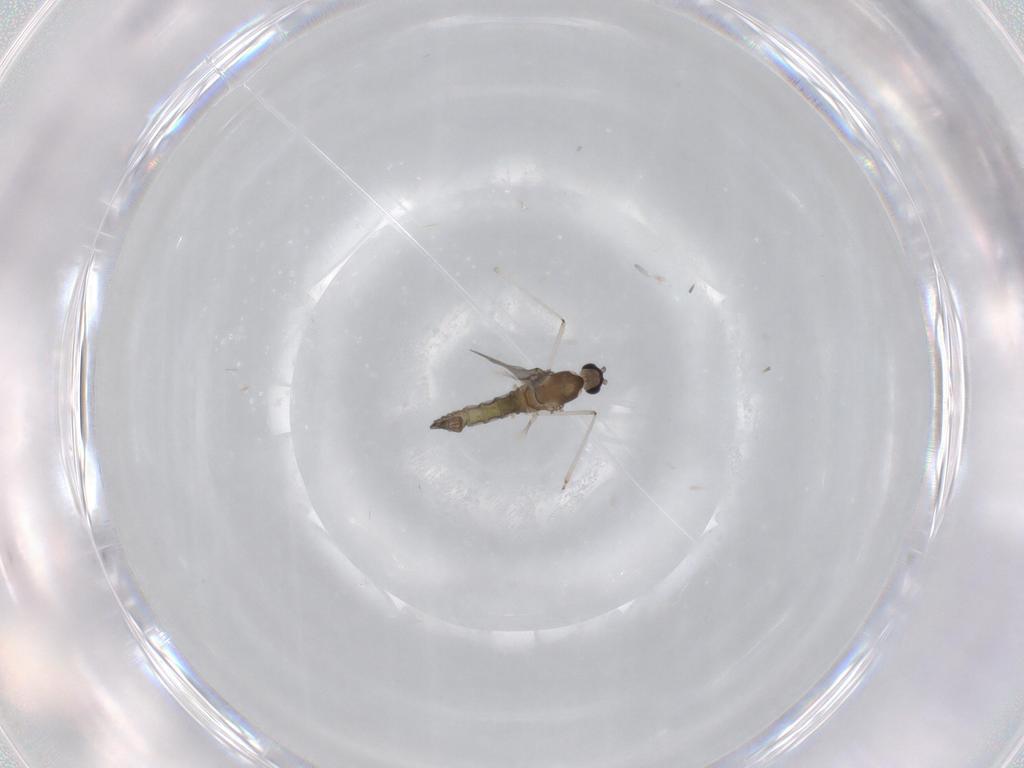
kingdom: Animalia
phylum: Arthropoda
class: Insecta
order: Diptera
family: Cecidomyiidae
